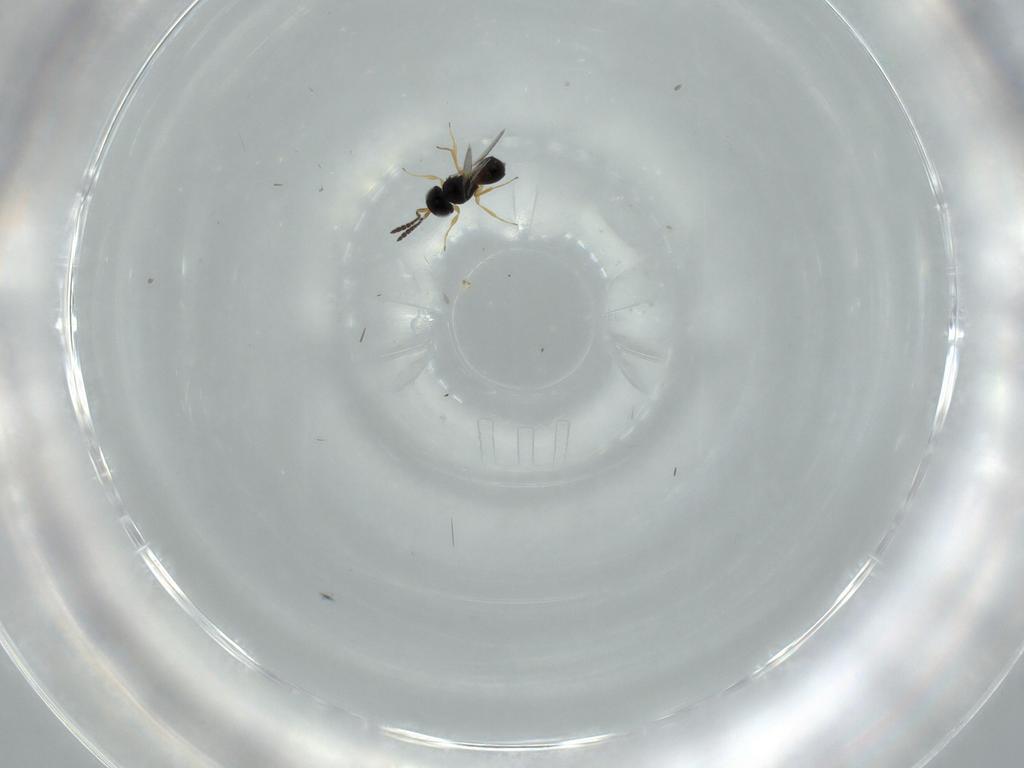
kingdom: Animalia
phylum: Arthropoda
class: Insecta
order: Hymenoptera
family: Scelionidae
